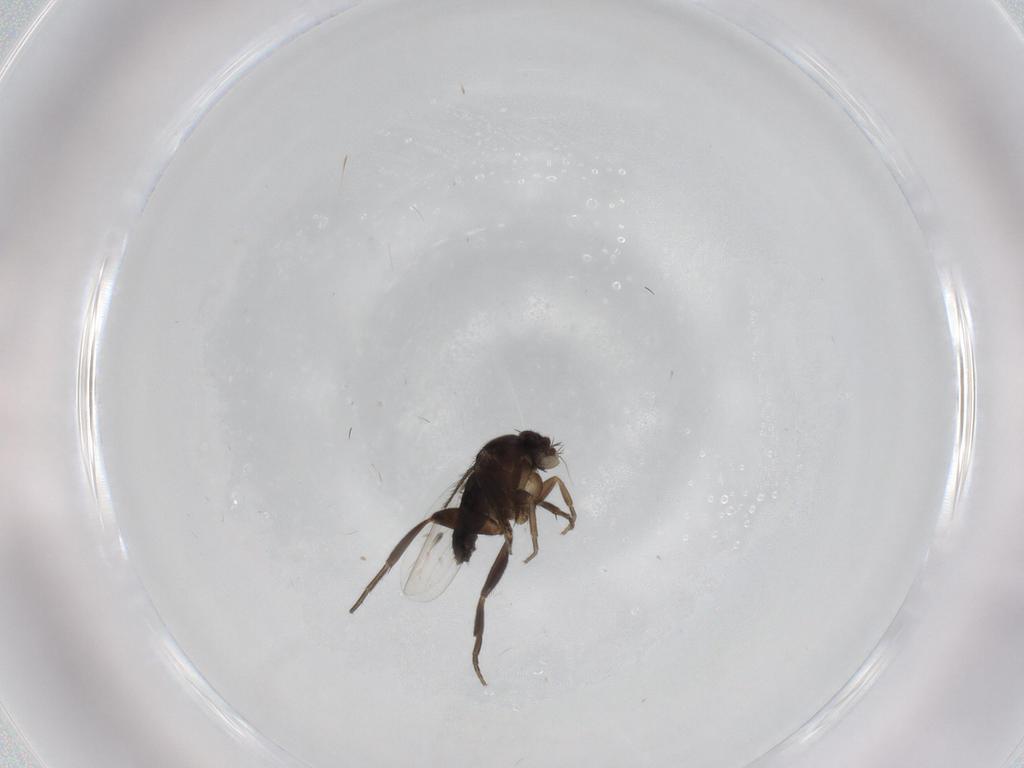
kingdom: Animalia
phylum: Arthropoda
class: Insecta
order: Diptera
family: Phoridae
